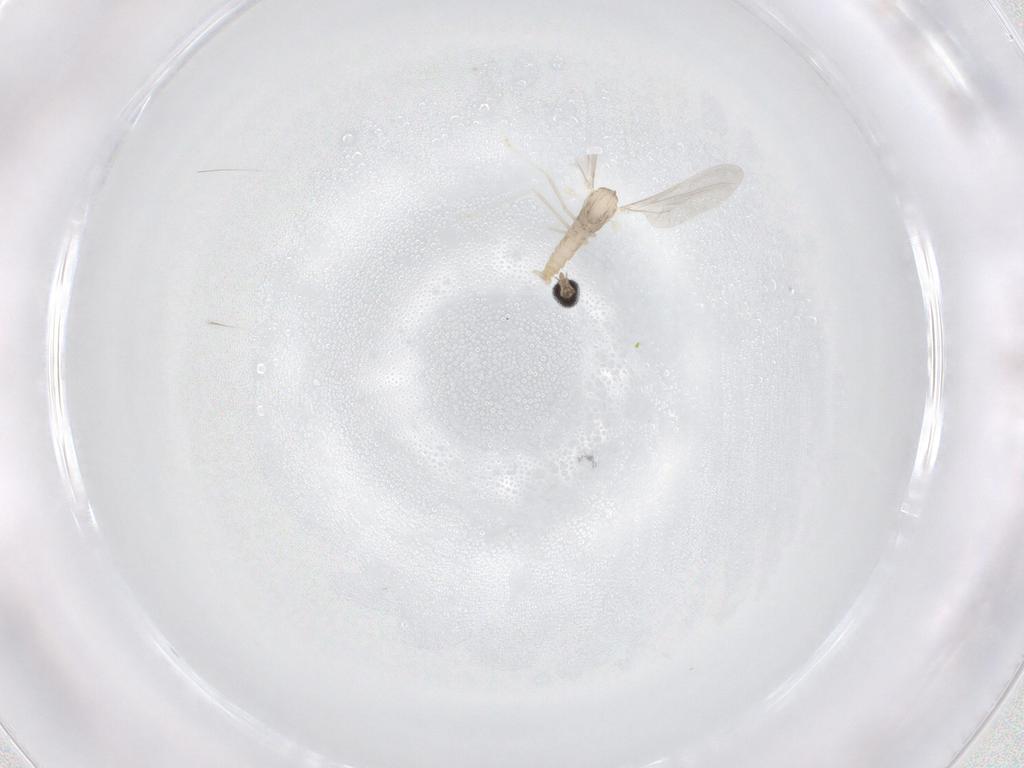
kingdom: Animalia
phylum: Arthropoda
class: Insecta
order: Diptera
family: Cecidomyiidae
